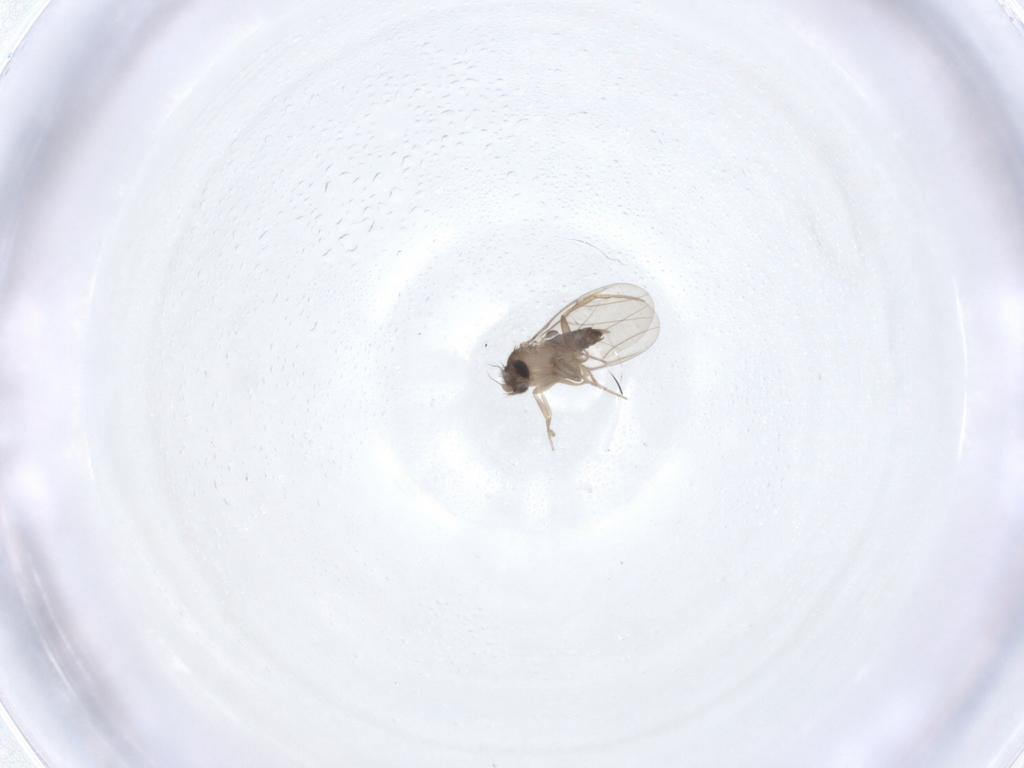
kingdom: Animalia
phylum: Arthropoda
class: Insecta
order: Diptera
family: Phoridae
